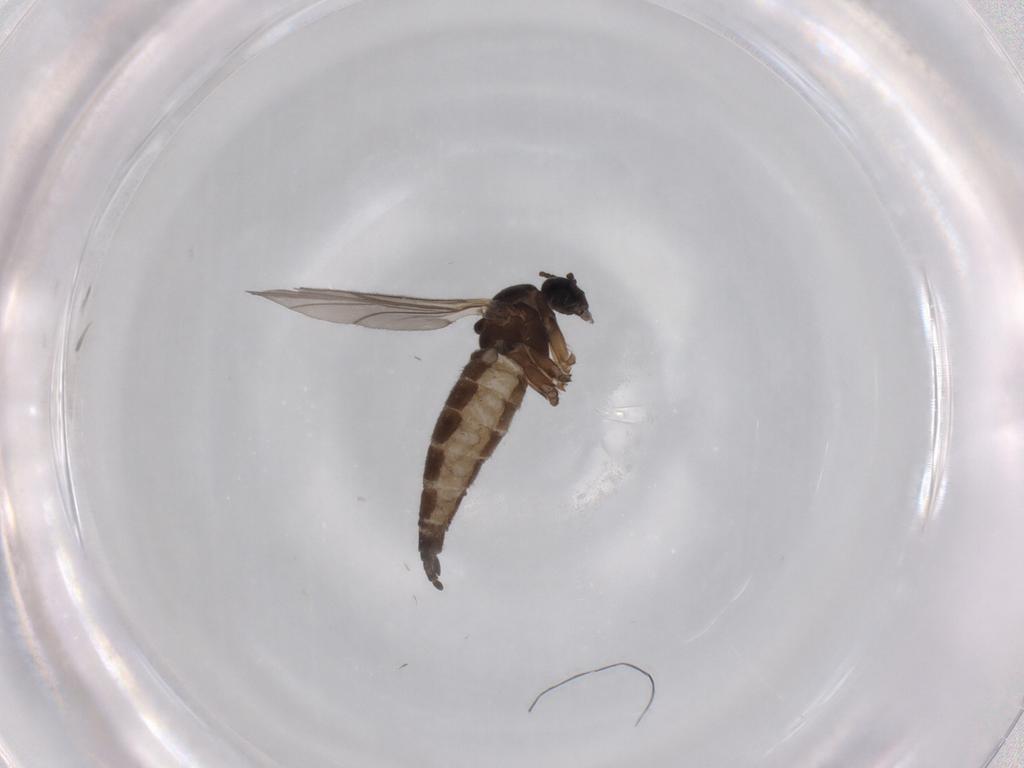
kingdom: Animalia
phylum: Arthropoda
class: Insecta
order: Diptera
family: Sciaridae
